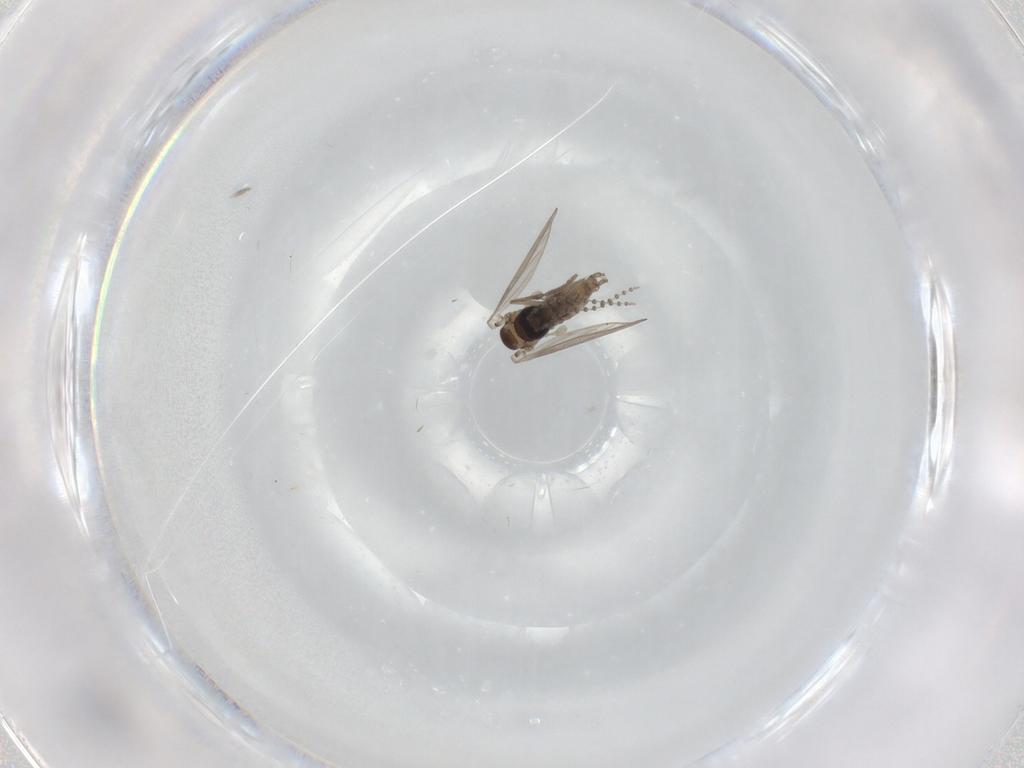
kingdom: Animalia
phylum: Arthropoda
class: Insecta
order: Diptera
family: Psychodidae
